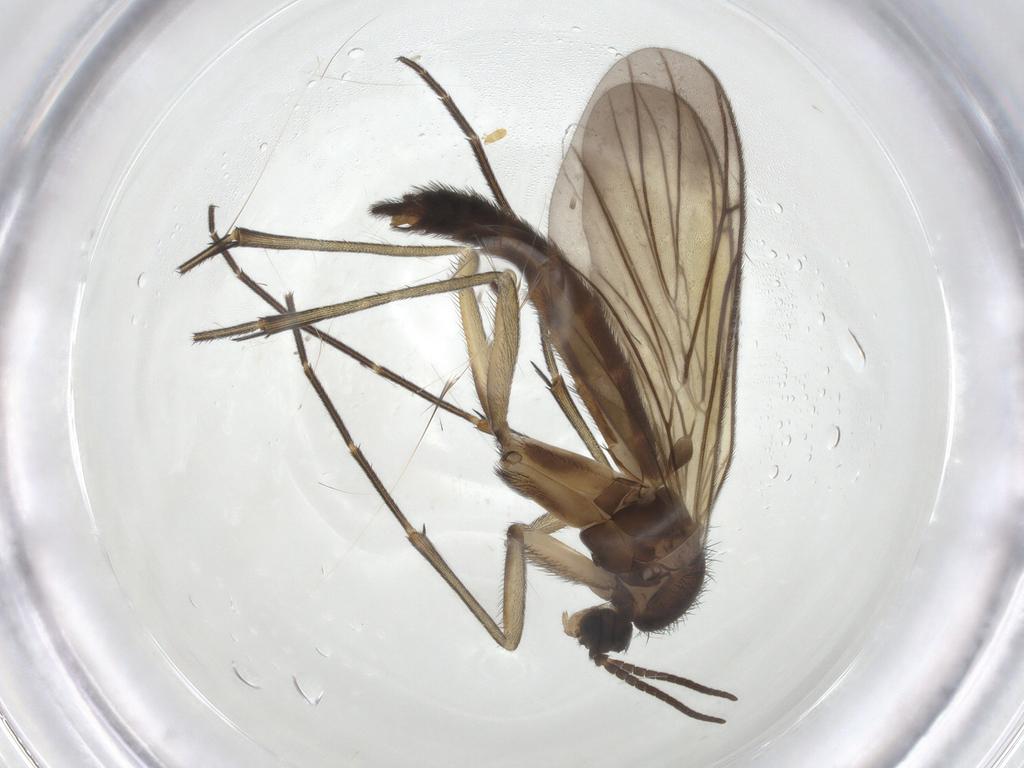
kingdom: Animalia
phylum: Arthropoda
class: Insecta
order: Diptera
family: Keroplatidae
